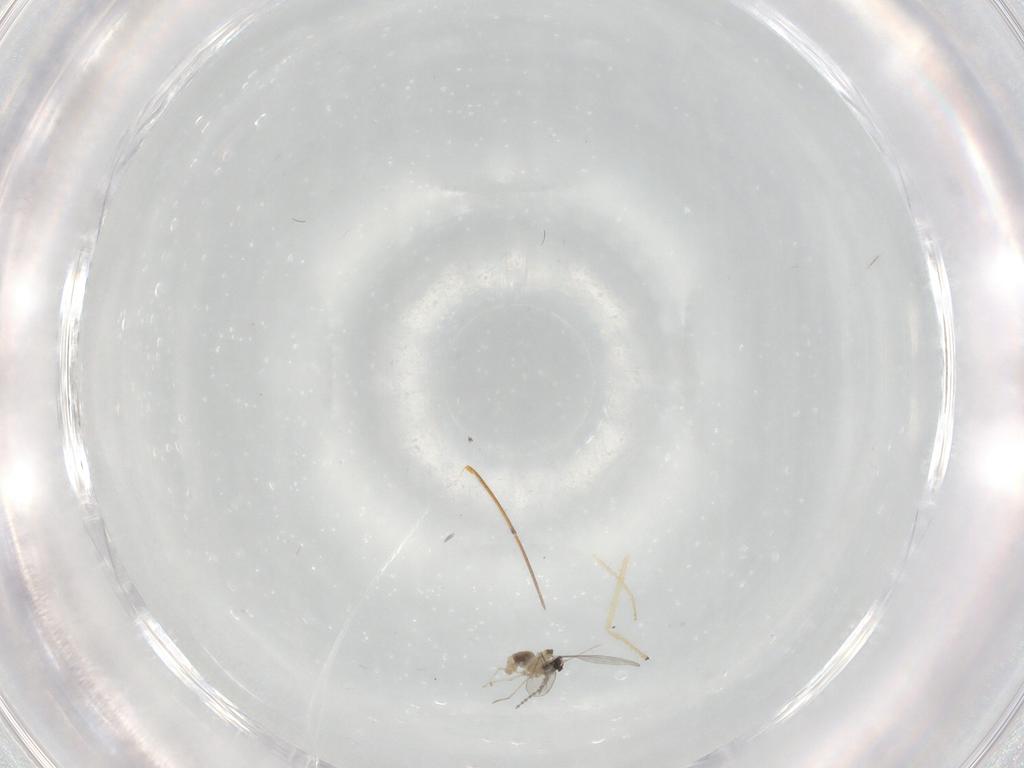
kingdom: Animalia
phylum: Arthropoda
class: Insecta
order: Diptera
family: Cecidomyiidae
